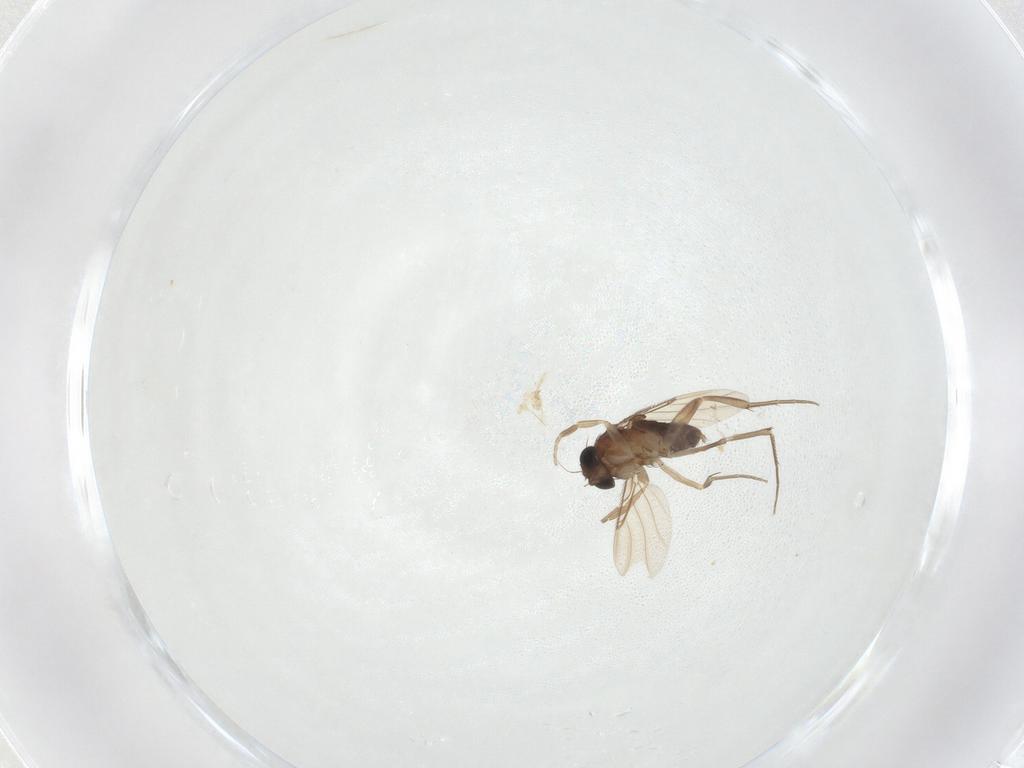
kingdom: Animalia
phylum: Arthropoda
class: Insecta
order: Diptera
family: Phoridae
